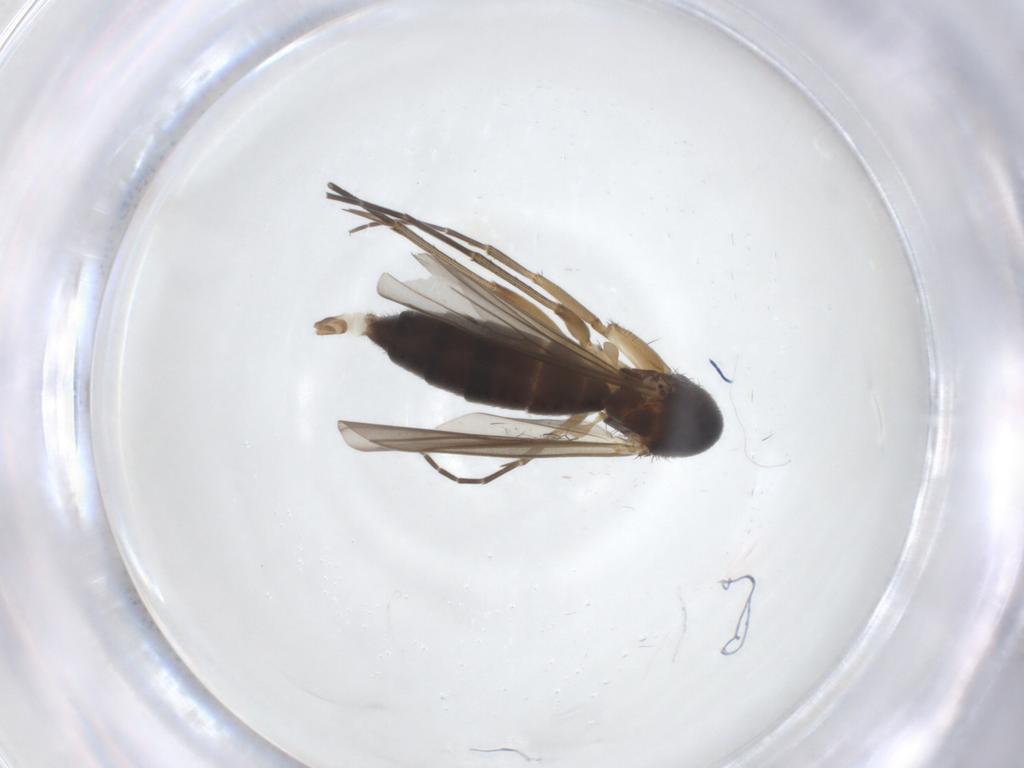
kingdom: Animalia
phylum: Arthropoda
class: Insecta
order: Diptera
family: Mycetophilidae
